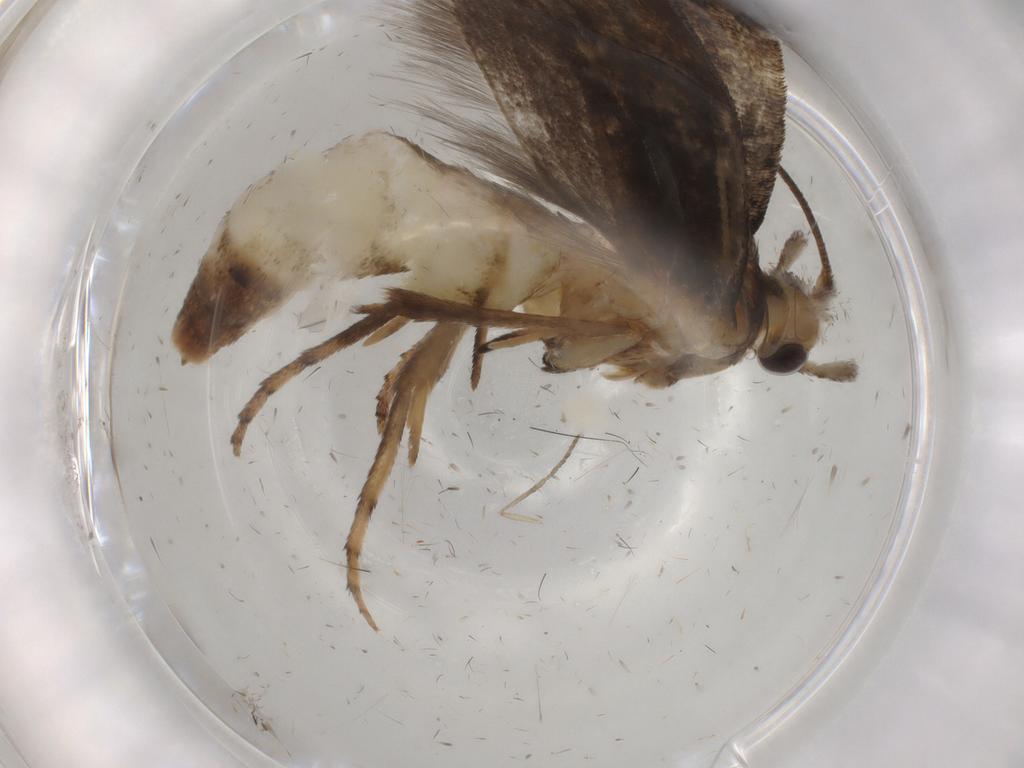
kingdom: Animalia
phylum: Arthropoda
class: Insecta
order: Lepidoptera
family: Yponomeutidae
